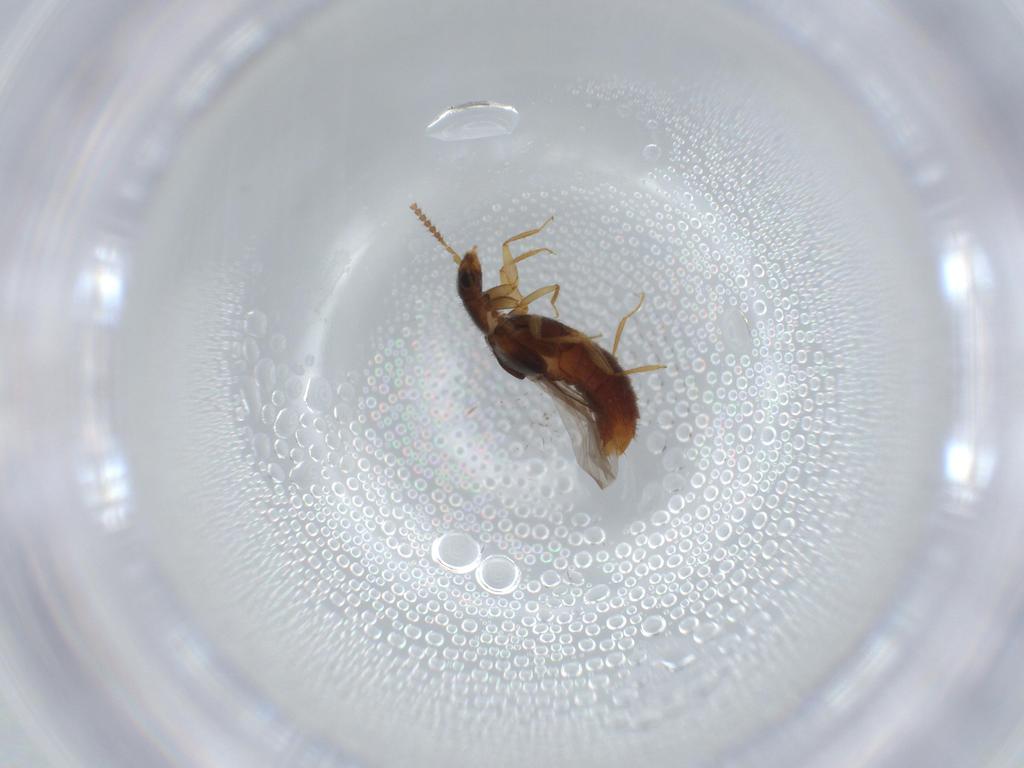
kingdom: Animalia
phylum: Arthropoda
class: Insecta
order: Coleoptera
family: Staphylinidae
